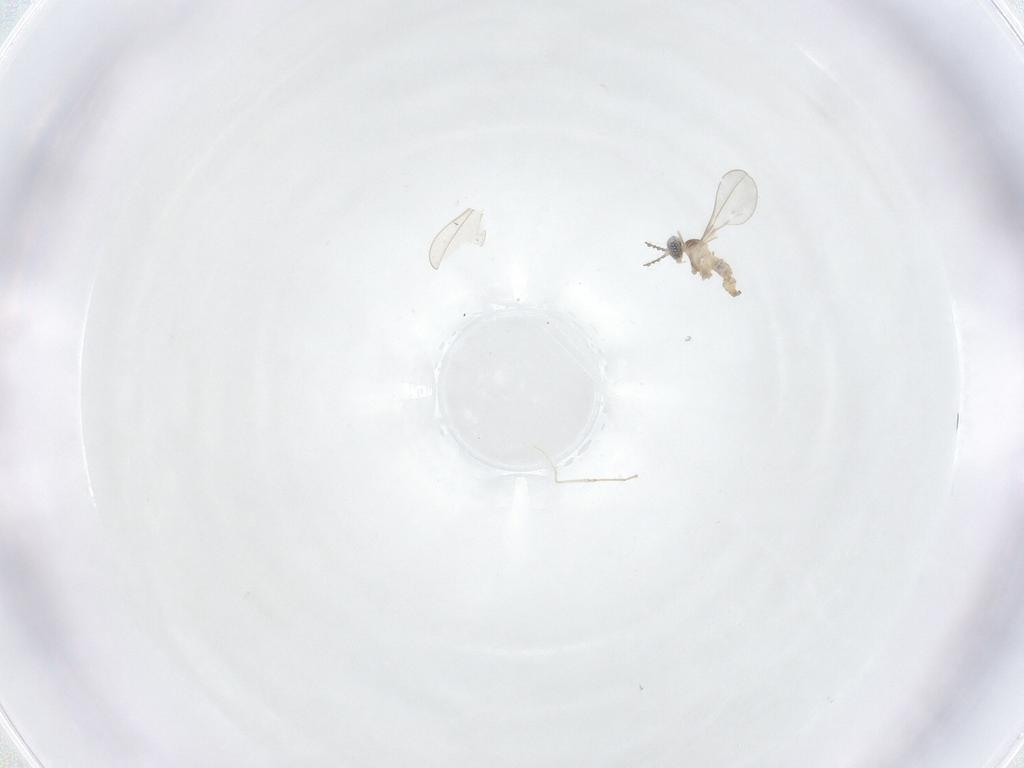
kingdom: Animalia
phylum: Arthropoda
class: Insecta
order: Diptera
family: Cecidomyiidae
